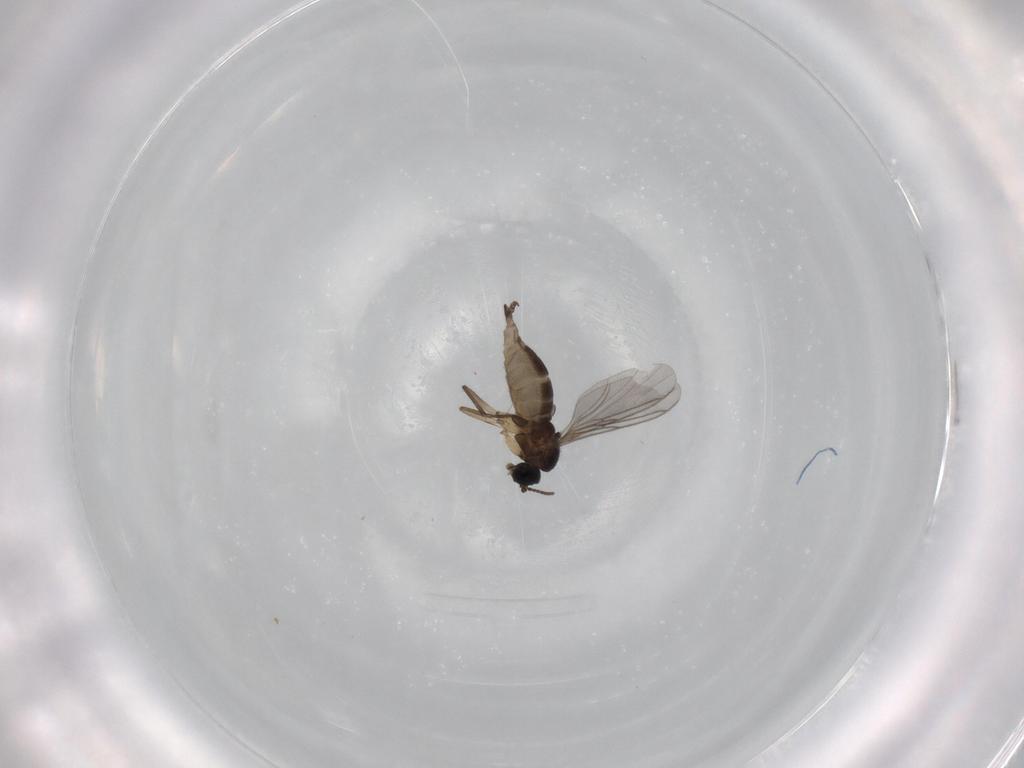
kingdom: Animalia
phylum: Arthropoda
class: Insecta
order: Diptera
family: Sciaridae
